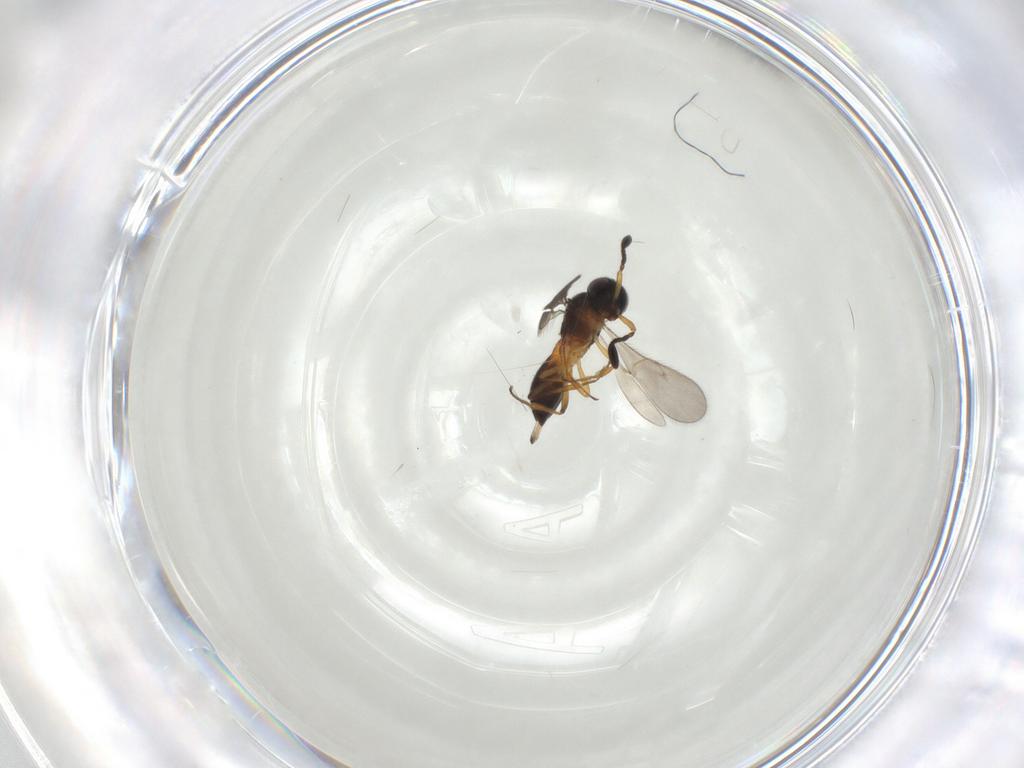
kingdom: Animalia
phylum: Arthropoda
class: Insecta
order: Hymenoptera
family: Scelionidae
